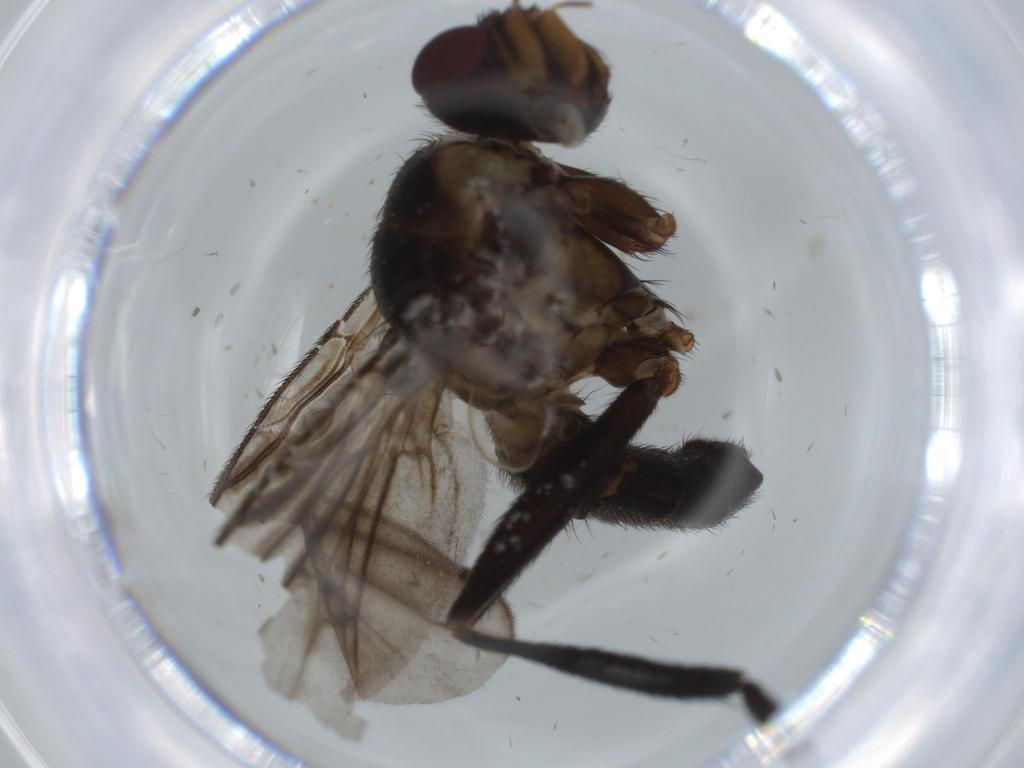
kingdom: Animalia
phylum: Arthropoda
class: Insecta
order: Diptera
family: Calliphoridae
